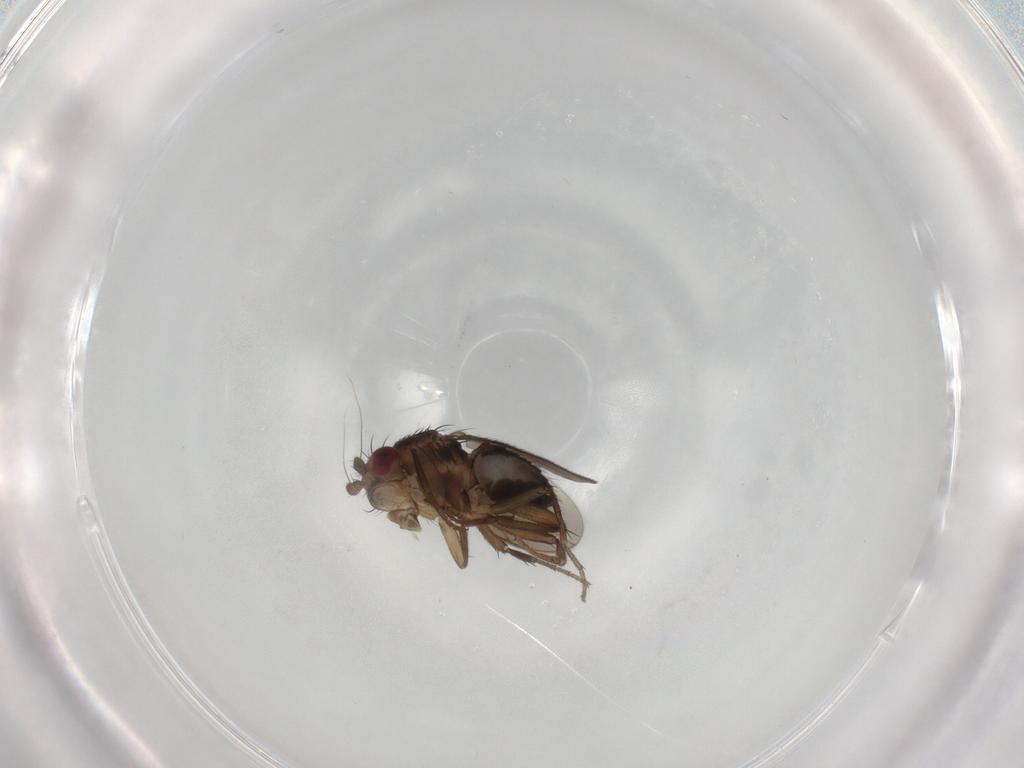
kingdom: Animalia
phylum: Arthropoda
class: Insecta
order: Diptera
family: Sphaeroceridae
